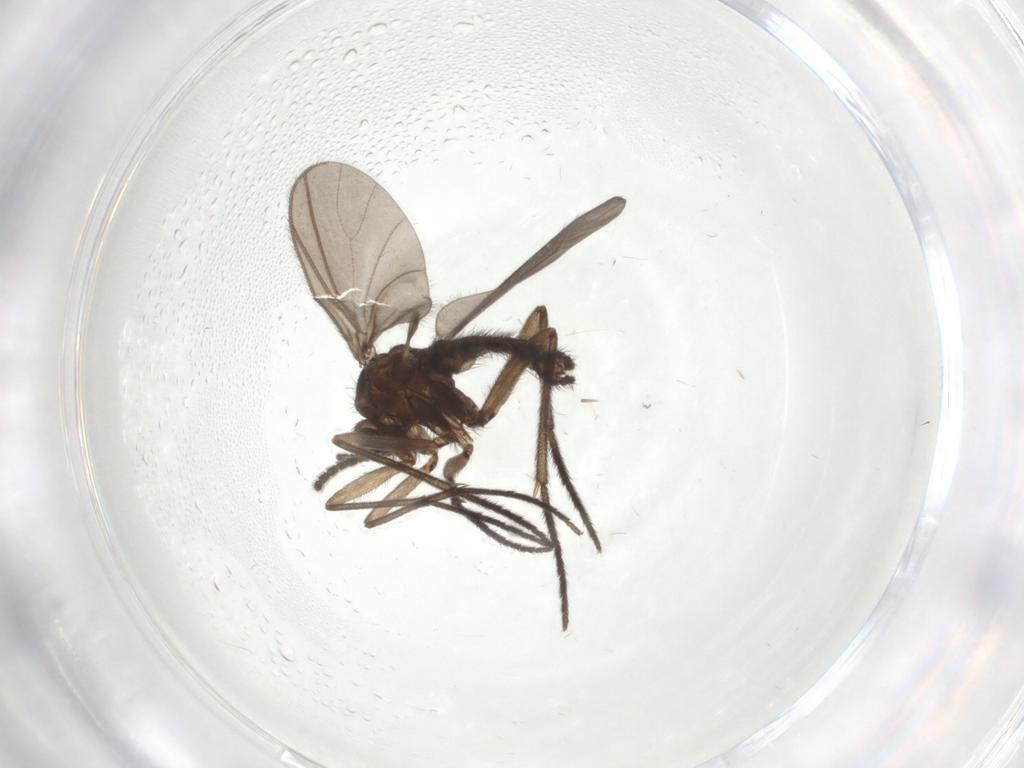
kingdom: Animalia
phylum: Arthropoda
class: Insecta
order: Diptera
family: Sciaridae
